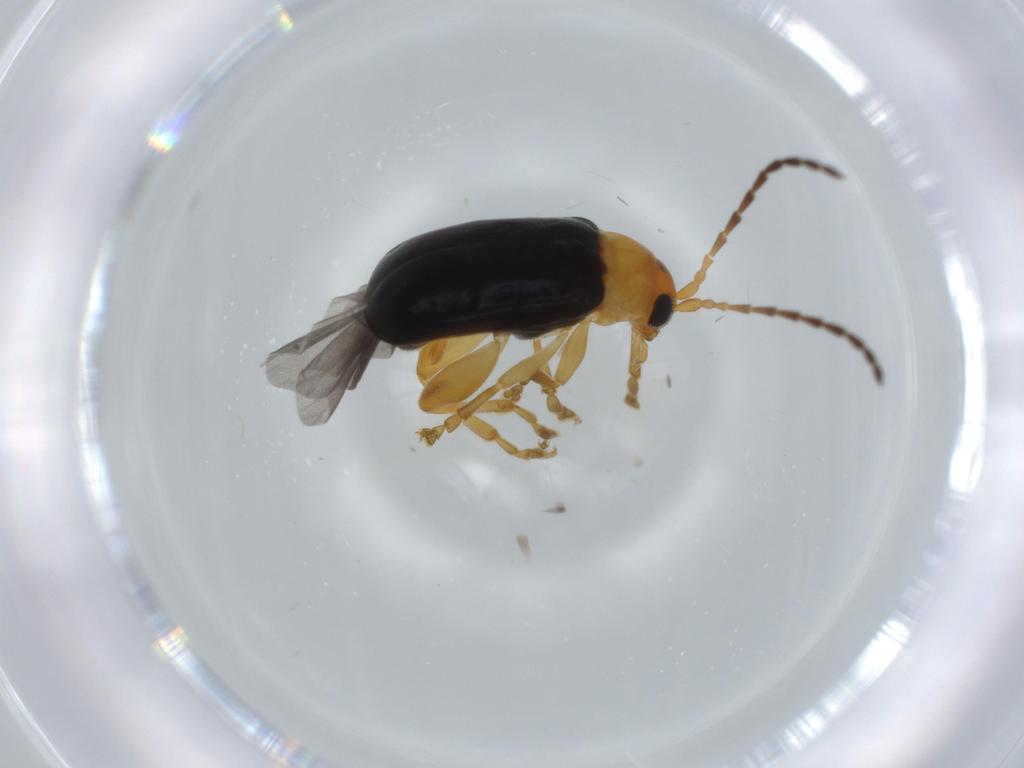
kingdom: Animalia
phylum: Arthropoda
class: Insecta
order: Coleoptera
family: Chrysomelidae
